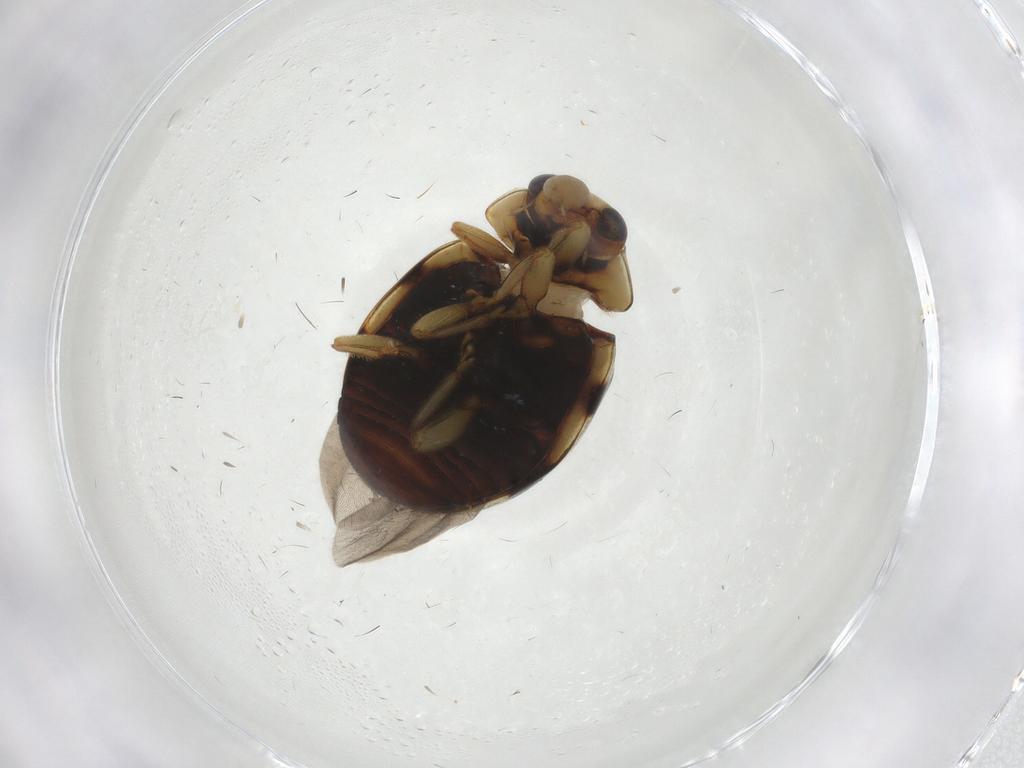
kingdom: Animalia
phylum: Arthropoda
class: Insecta
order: Coleoptera
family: Coccinellidae
